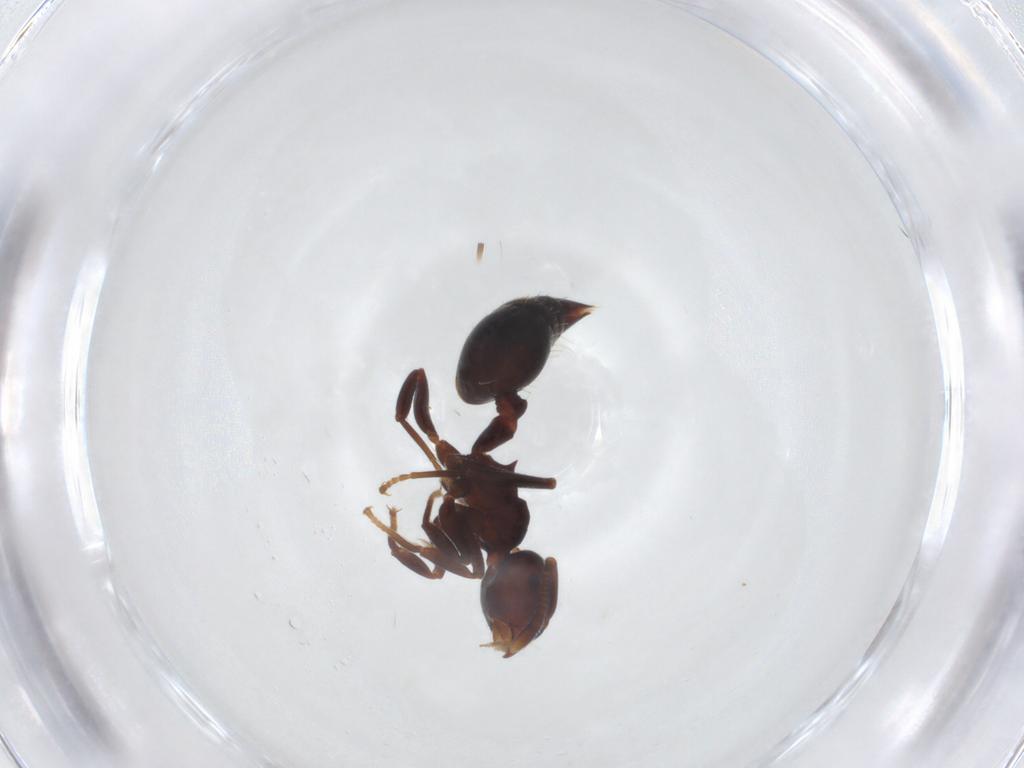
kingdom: Animalia
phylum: Arthropoda
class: Insecta
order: Hymenoptera
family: Formicidae
